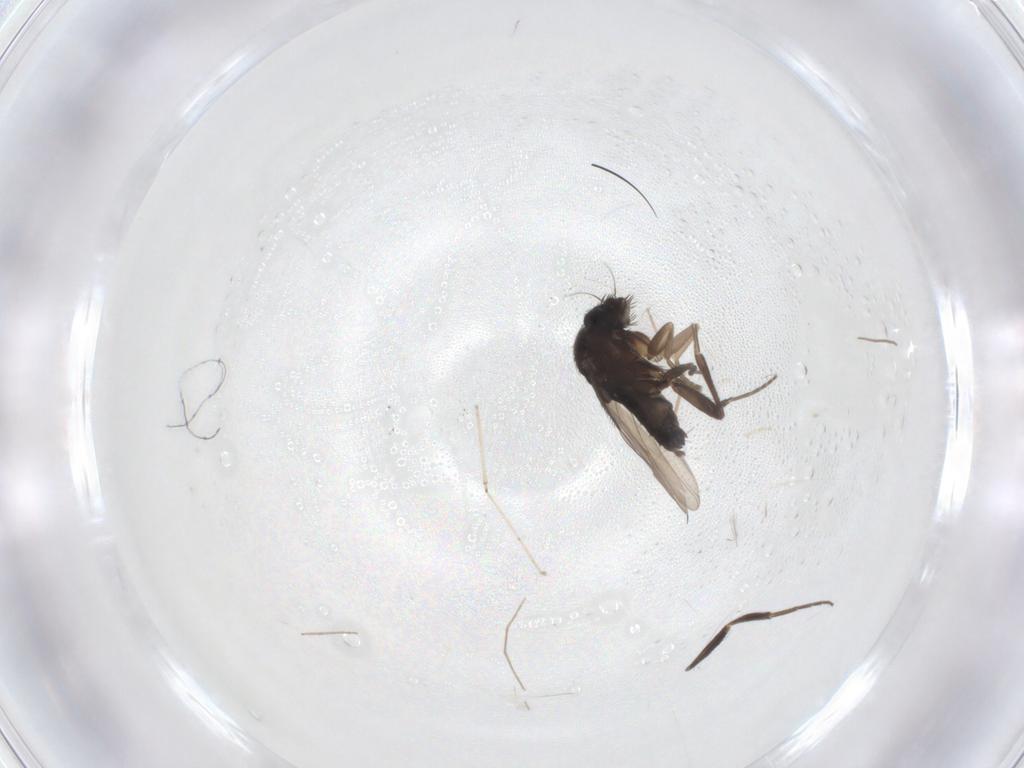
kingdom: Animalia
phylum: Arthropoda
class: Insecta
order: Diptera
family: Phoridae
